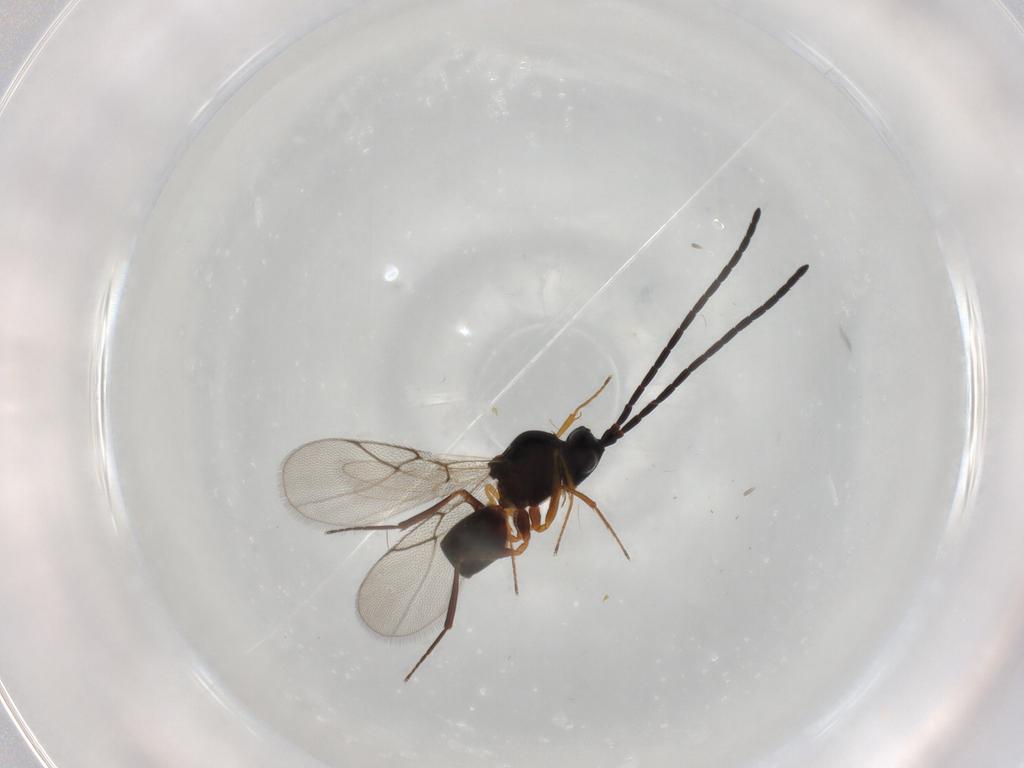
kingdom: Animalia
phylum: Arthropoda
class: Insecta
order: Hymenoptera
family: Figitidae
